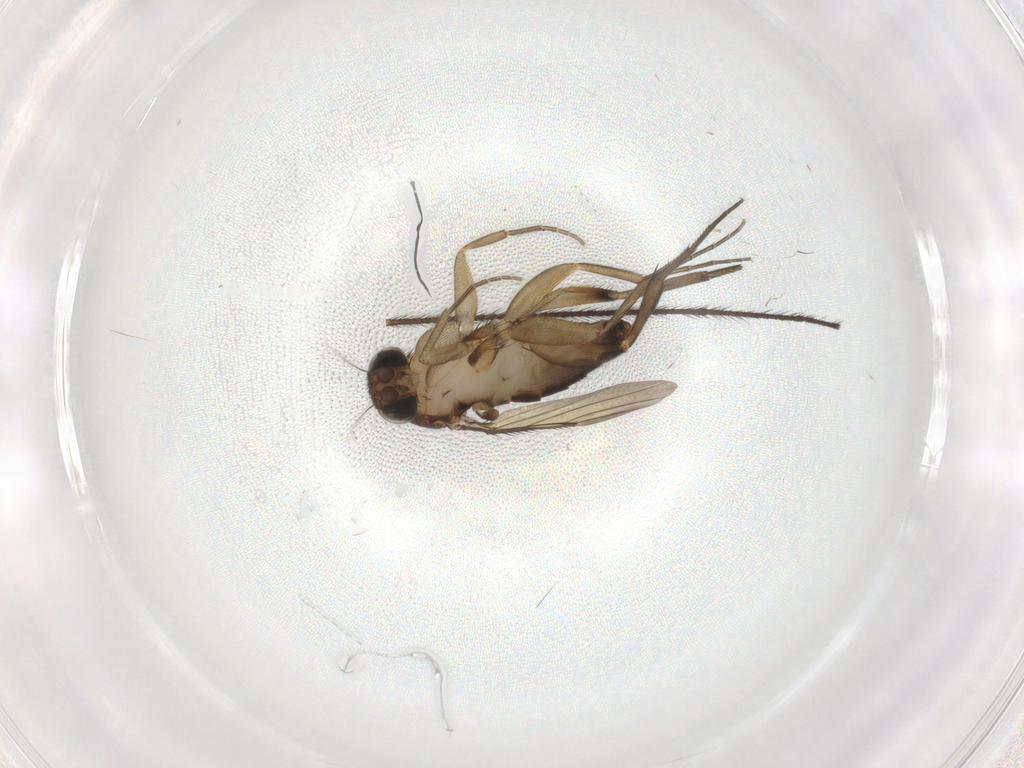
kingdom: Animalia
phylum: Arthropoda
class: Insecta
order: Diptera
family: Phoridae
